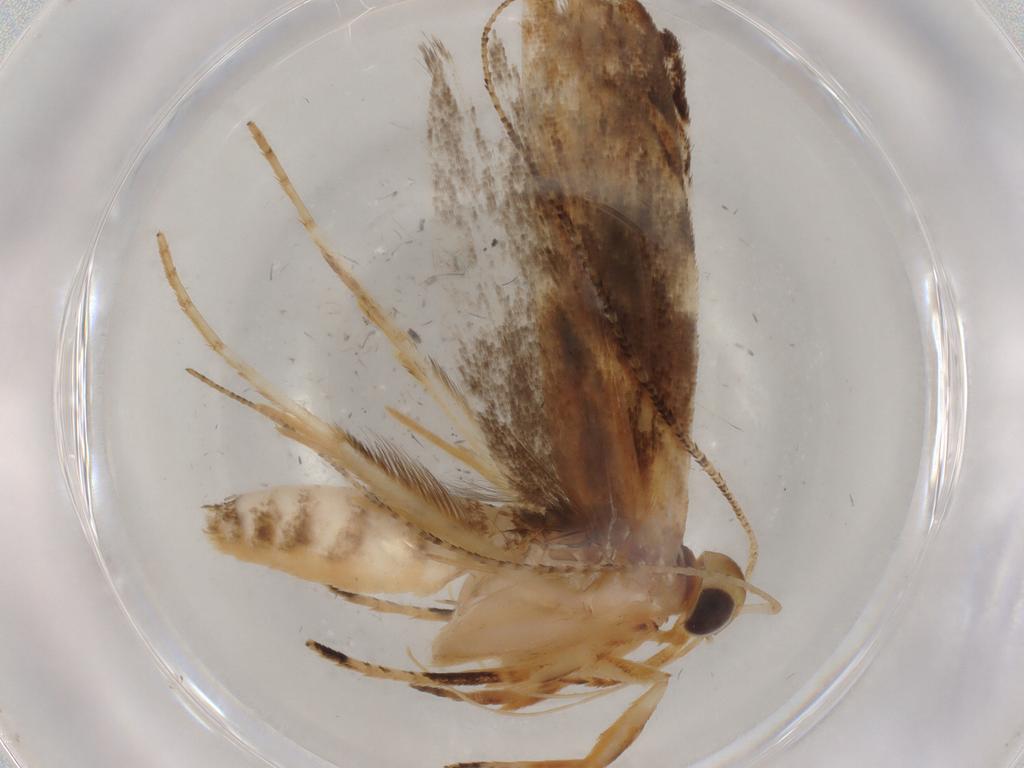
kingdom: Animalia
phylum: Arthropoda
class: Insecta
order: Lepidoptera
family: Gelechiidae
